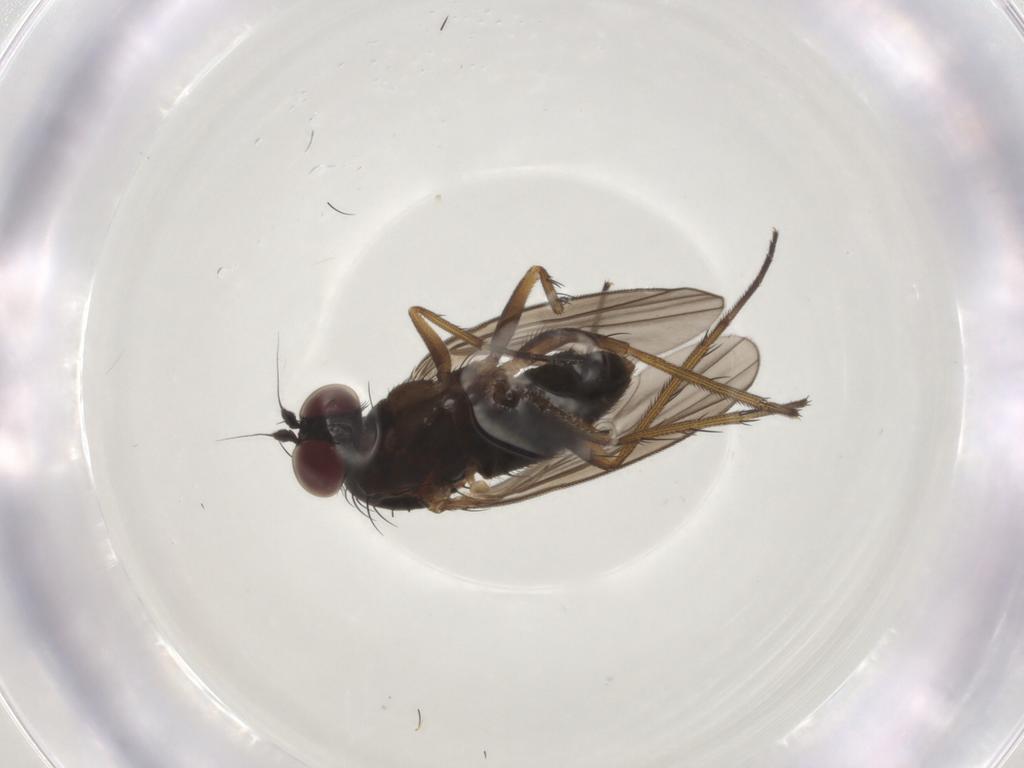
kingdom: Animalia
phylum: Arthropoda
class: Insecta
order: Diptera
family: Dolichopodidae
